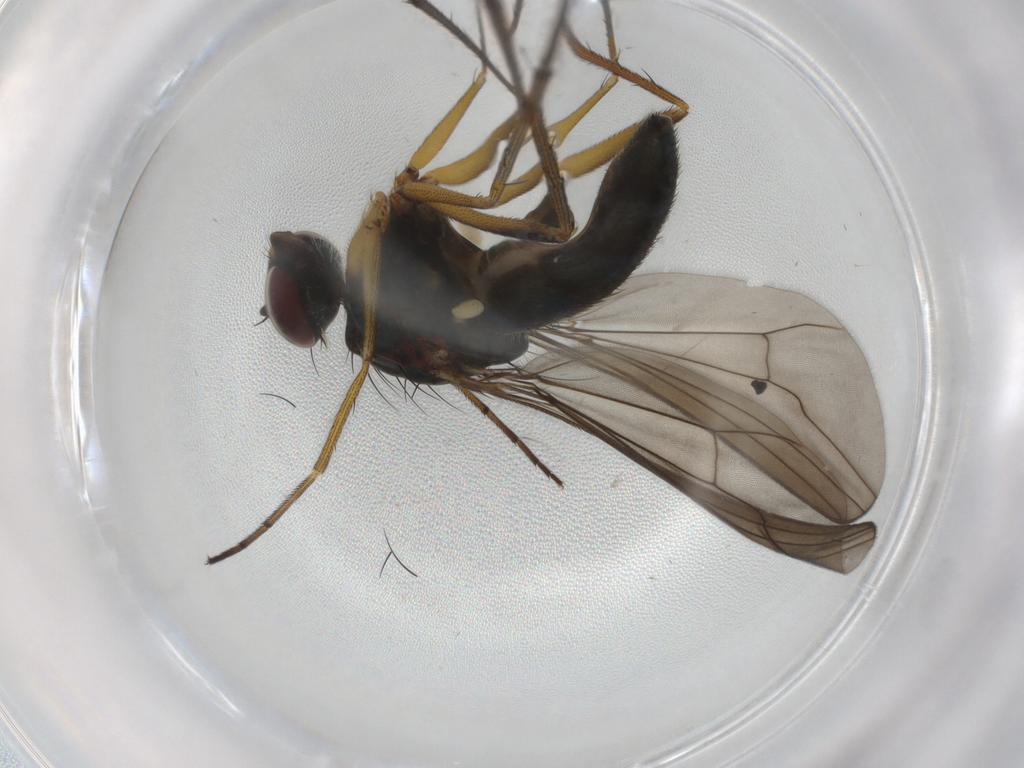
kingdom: Animalia
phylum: Arthropoda
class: Insecta
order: Diptera
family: Dolichopodidae
